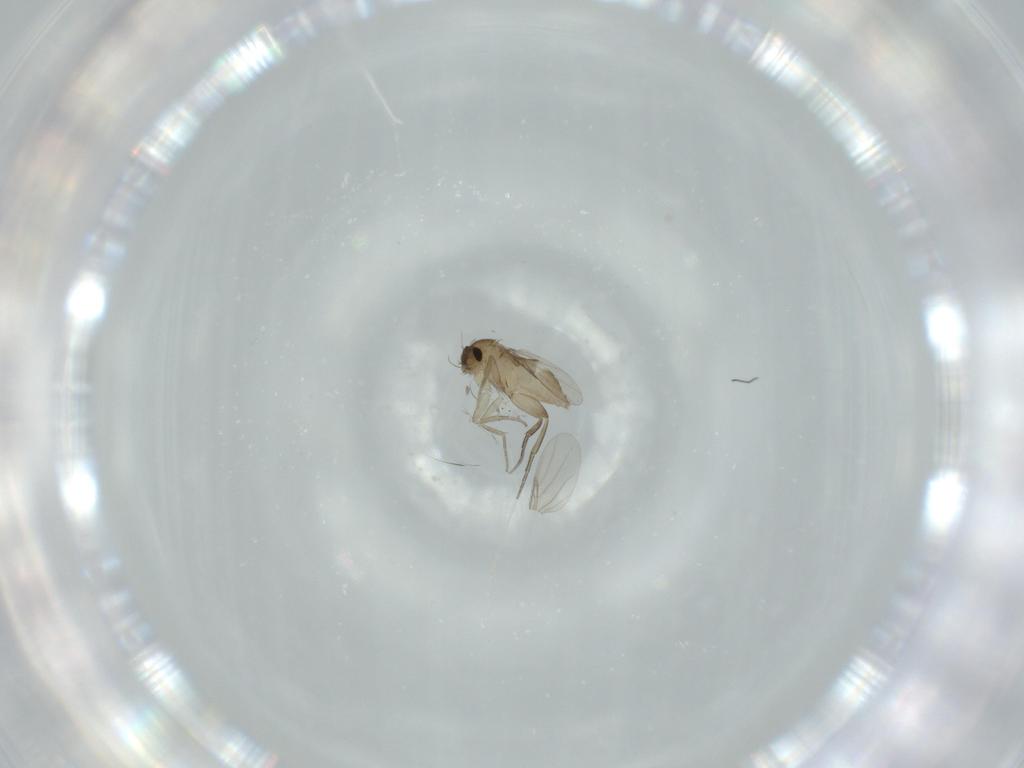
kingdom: Animalia
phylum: Arthropoda
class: Insecta
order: Diptera
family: Phoridae
